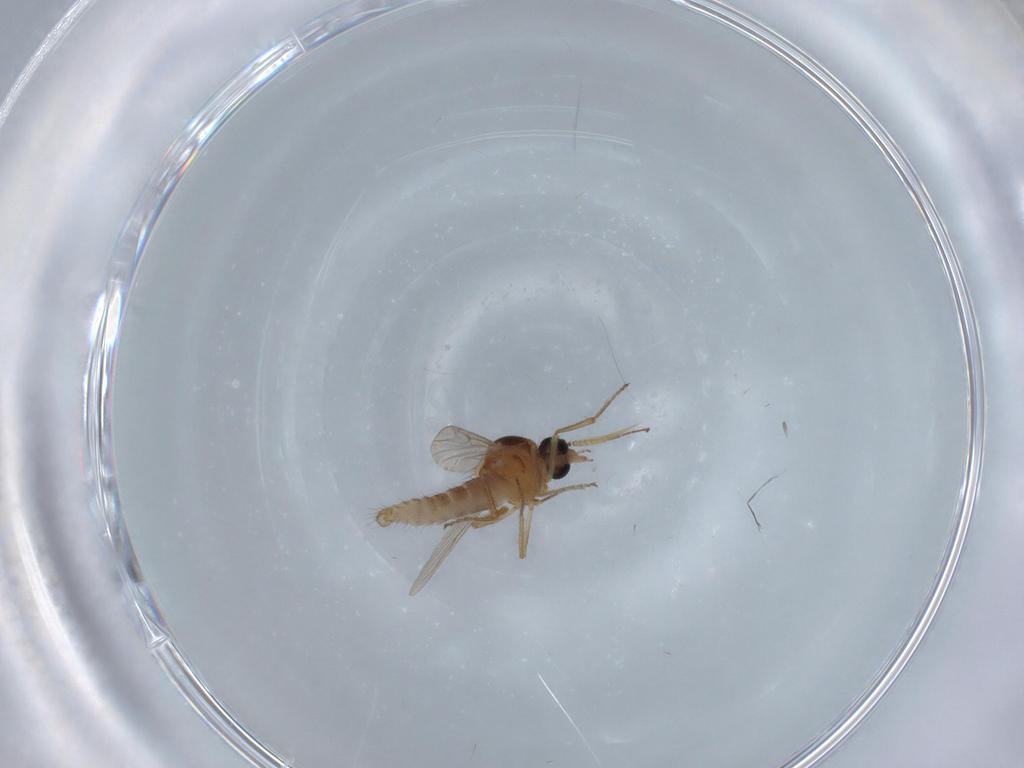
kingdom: Animalia
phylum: Arthropoda
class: Insecta
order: Diptera
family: Ceratopogonidae
